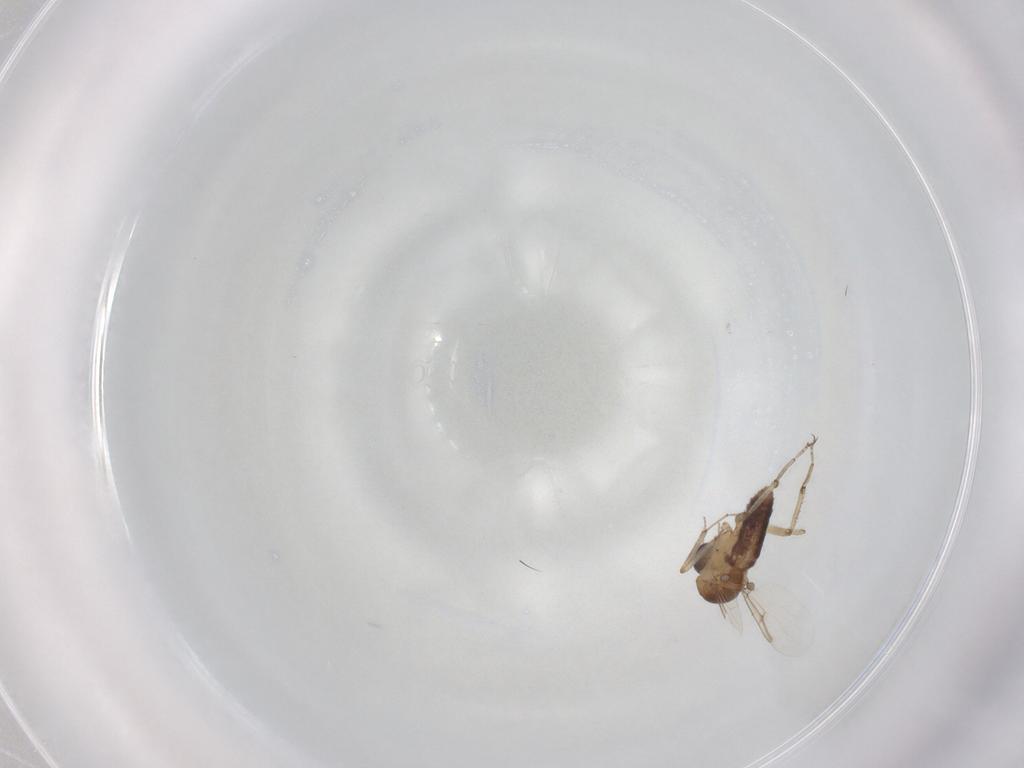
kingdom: Animalia
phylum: Arthropoda
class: Insecta
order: Diptera
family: Ceratopogonidae
